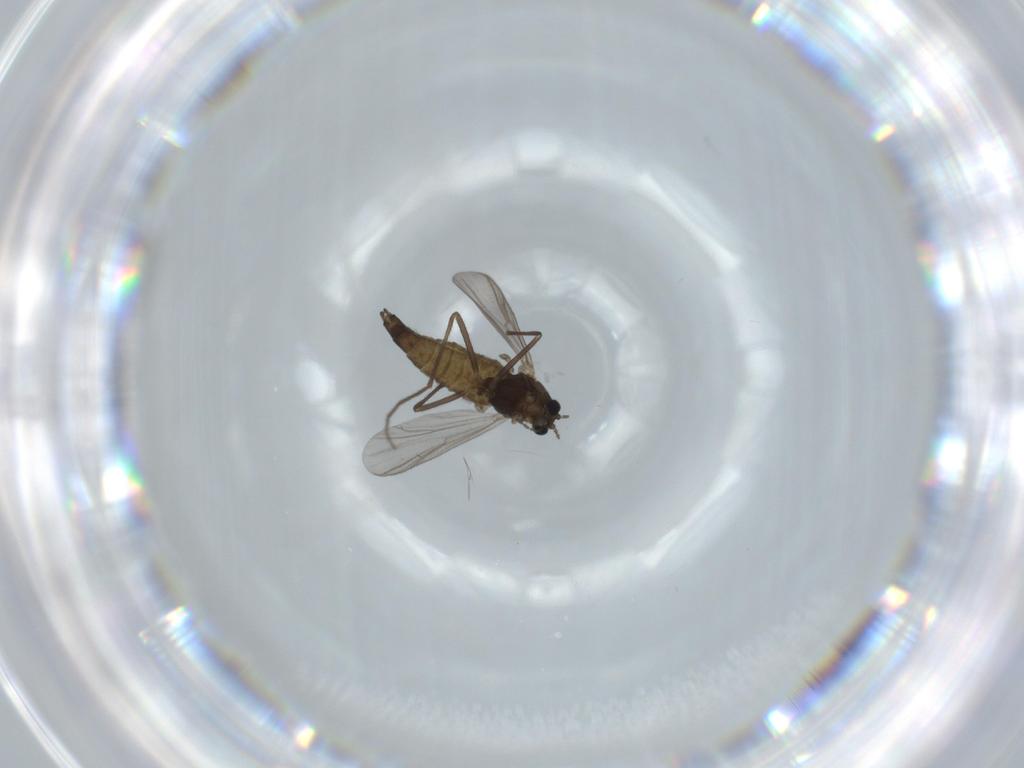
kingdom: Animalia
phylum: Arthropoda
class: Insecta
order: Diptera
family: Chironomidae
